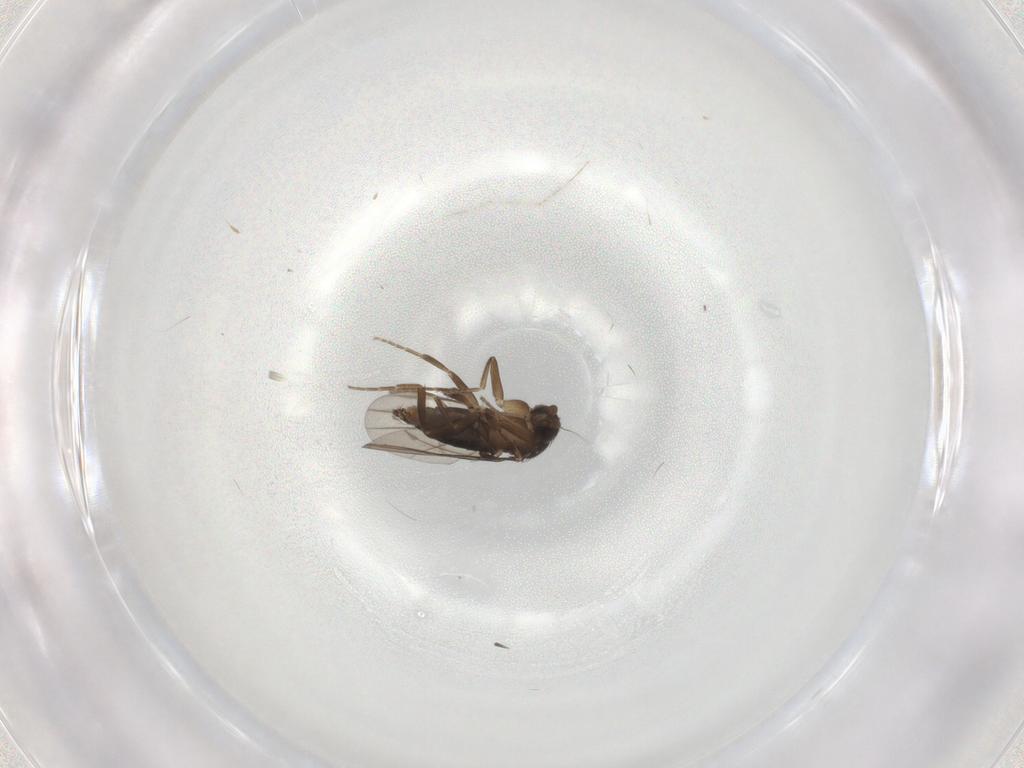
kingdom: Animalia
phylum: Arthropoda
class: Insecta
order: Diptera
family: Phoridae
